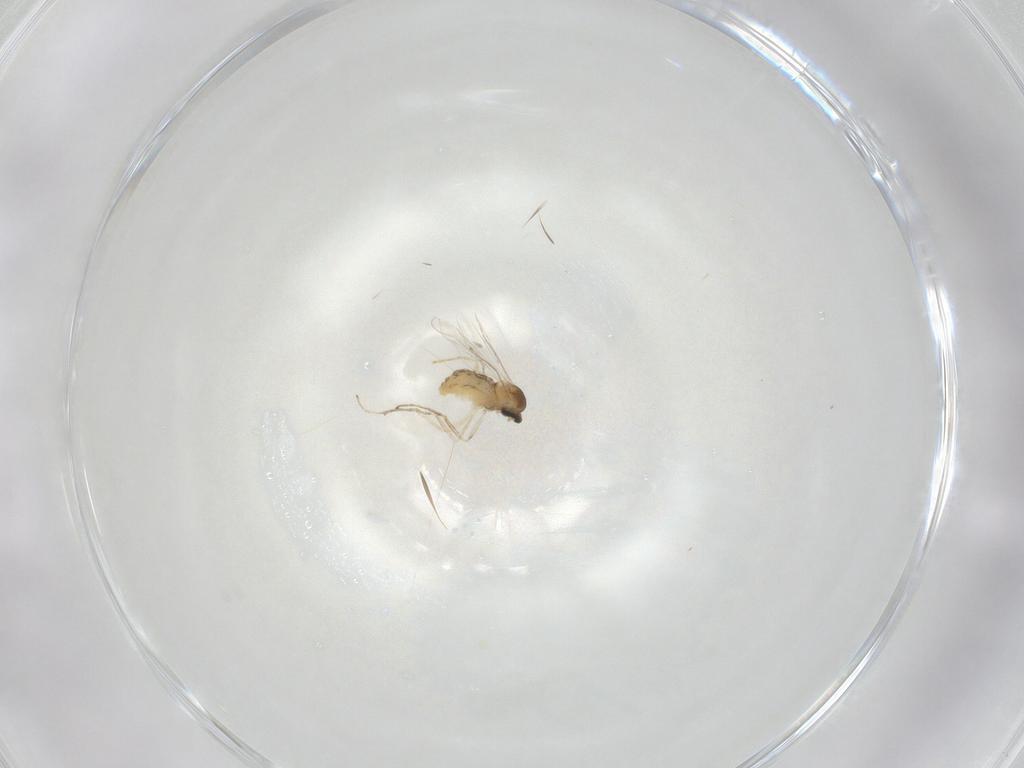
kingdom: Animalia
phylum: Arthropoda
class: Insecta
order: Diptera
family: Cecidomyiidae
